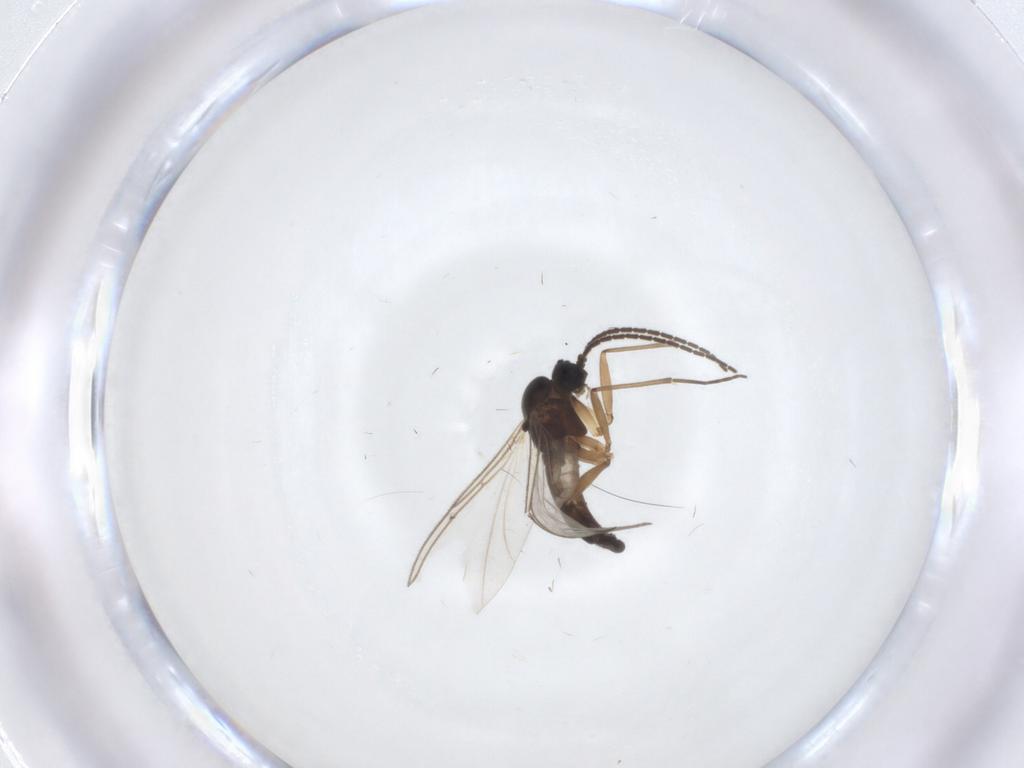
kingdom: Animalia
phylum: Arthropoda
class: Insecta
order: Diptera
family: Sciaridae
